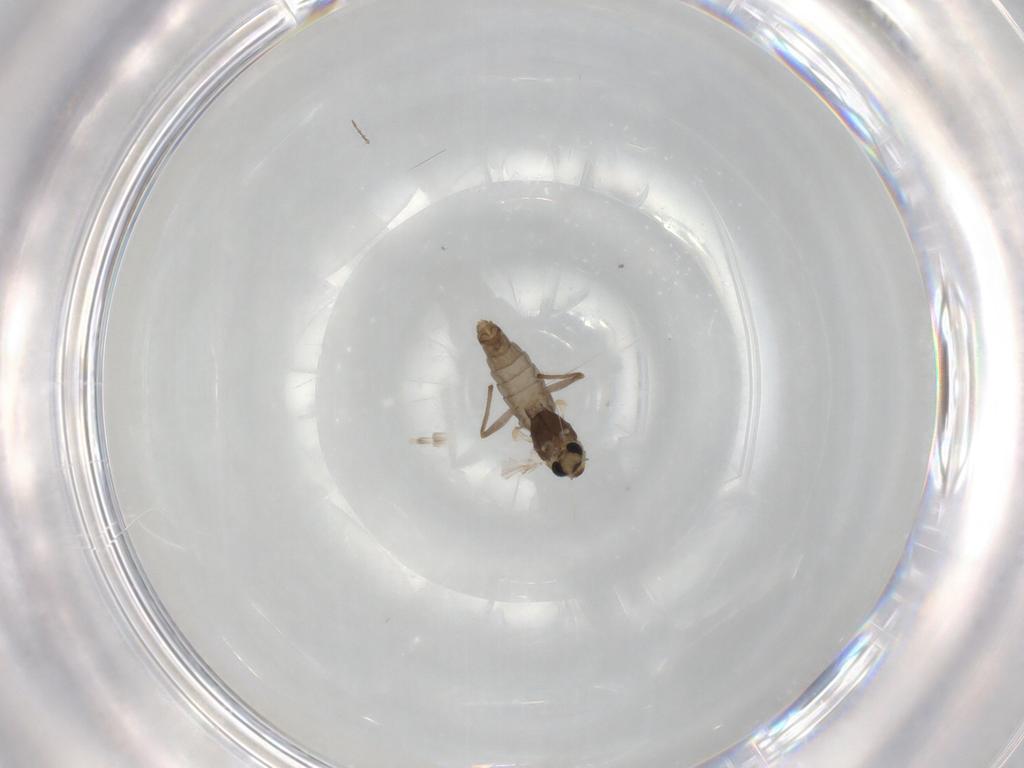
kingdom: Animalia
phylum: Arthropoda
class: Insecta
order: Diptera
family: Chironomidae
